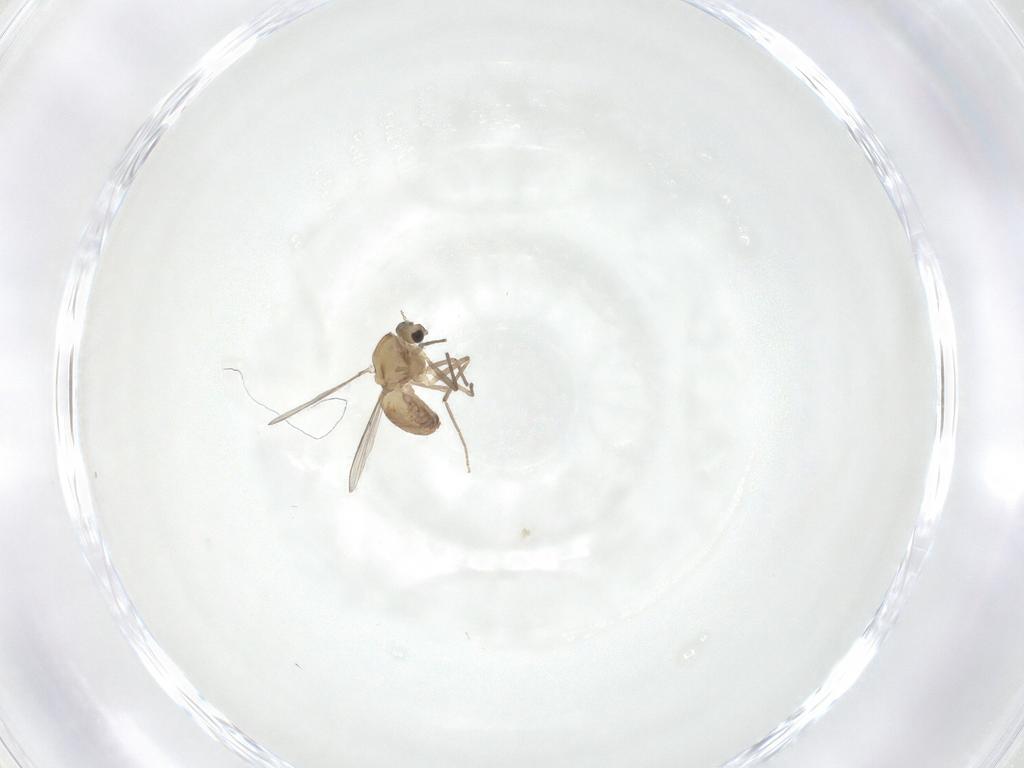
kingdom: Animalia
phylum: Arthropoda
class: Insecta
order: Diptera
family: Chironomidae
